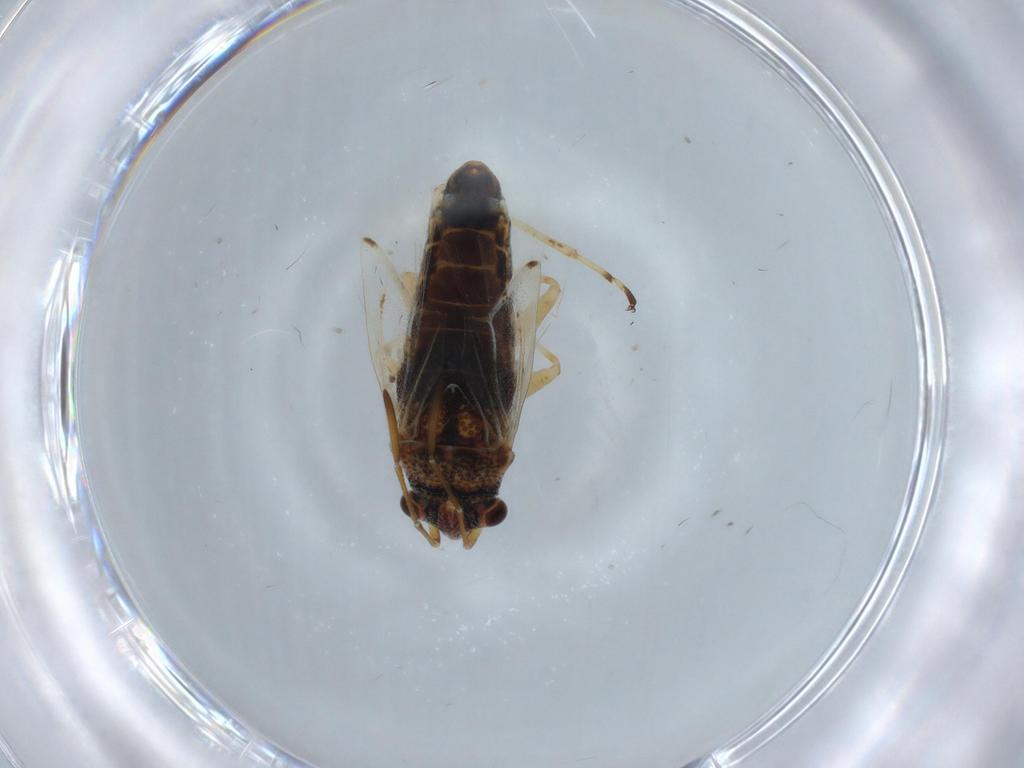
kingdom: Animalia
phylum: Arthropoda
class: Insecta
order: Hemiptera
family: Lygaeidae
